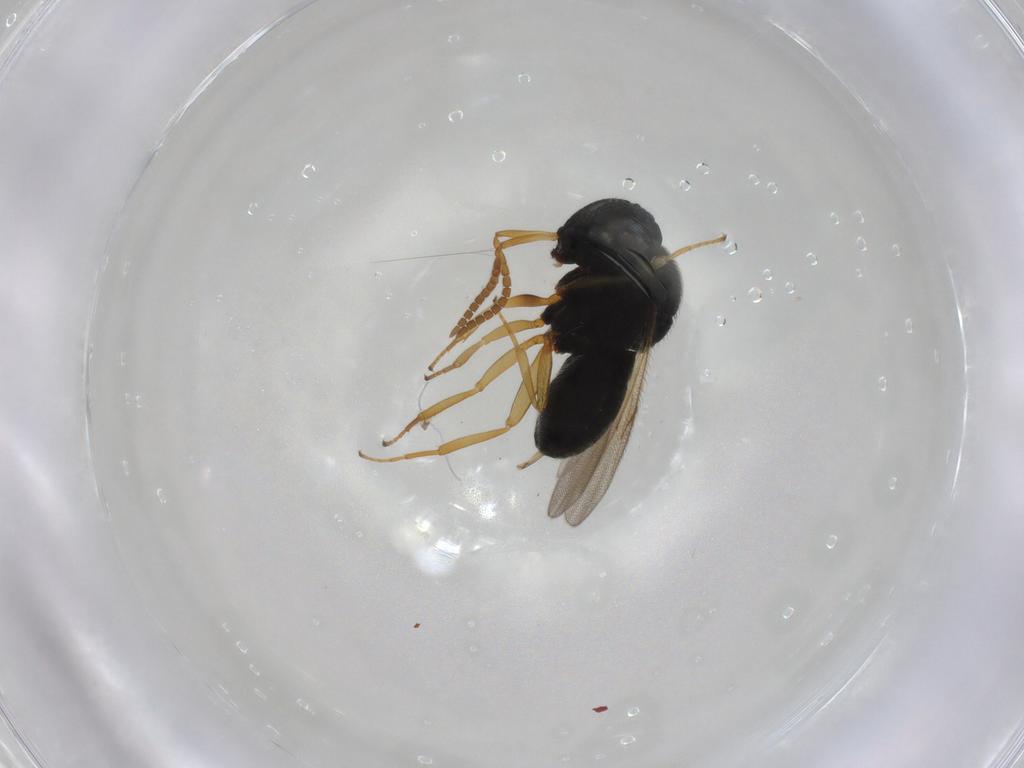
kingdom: Animalia
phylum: Arthropoda
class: Insecta
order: Hymenoptera
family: Scelionidae
